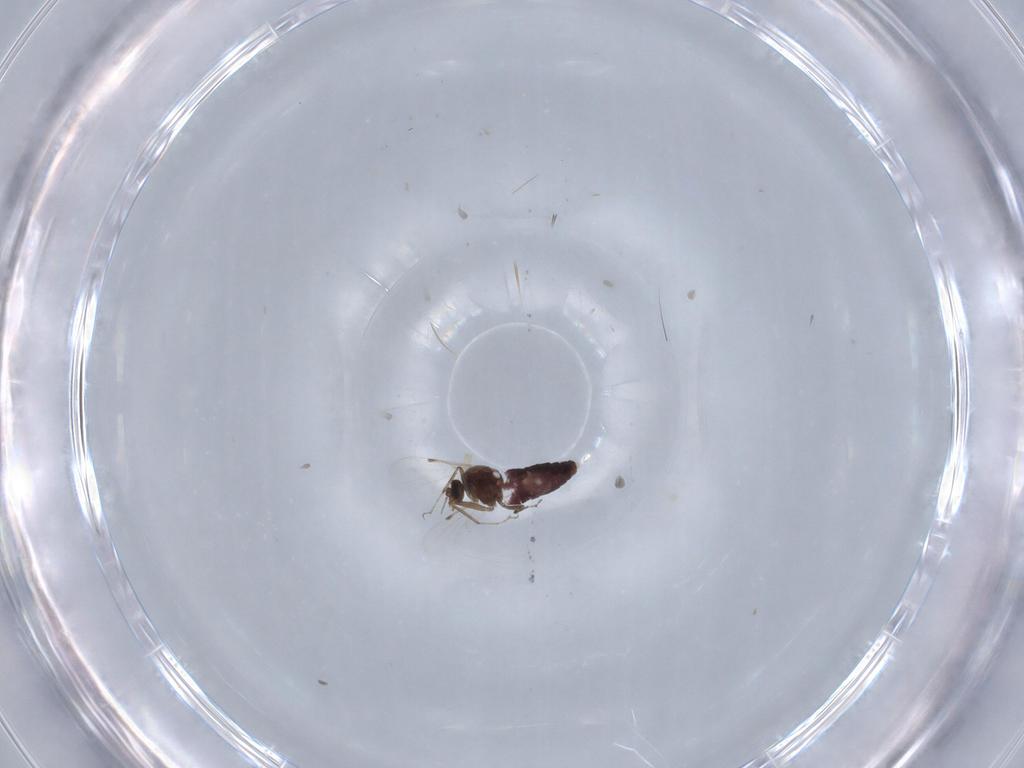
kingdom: Animalia
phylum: Arthropoda
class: Insecta
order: Diptera
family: Ceratopogonidae
